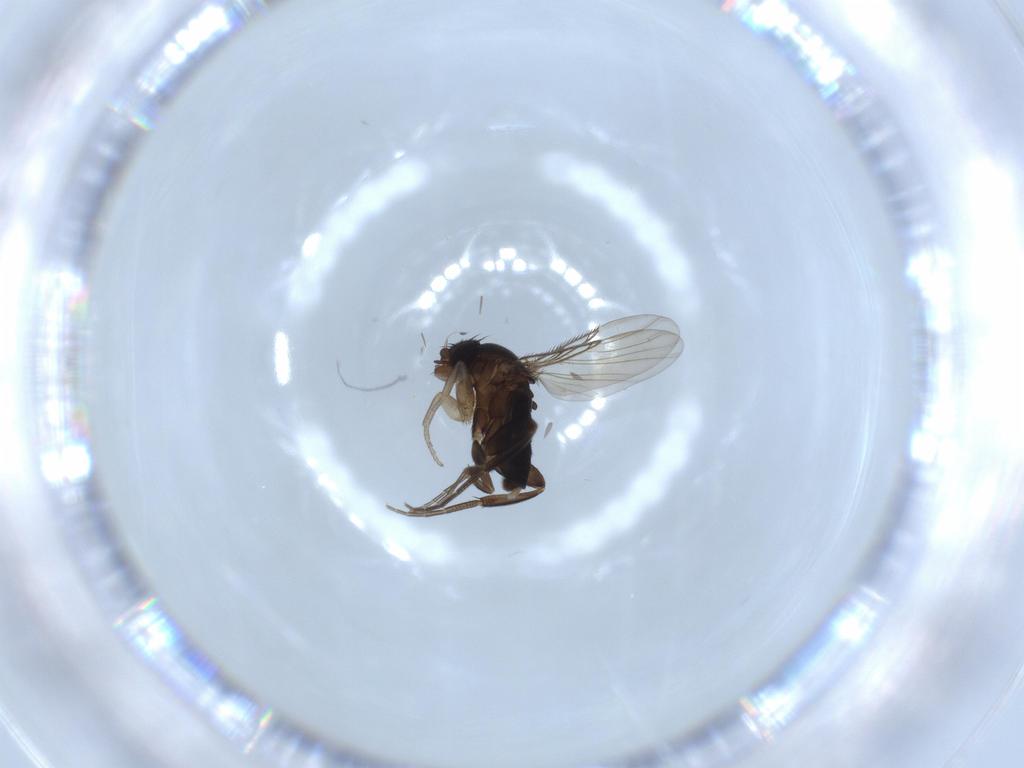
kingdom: Animalia
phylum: Arthropoda
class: Insecta
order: Diptera
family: Phoridae
